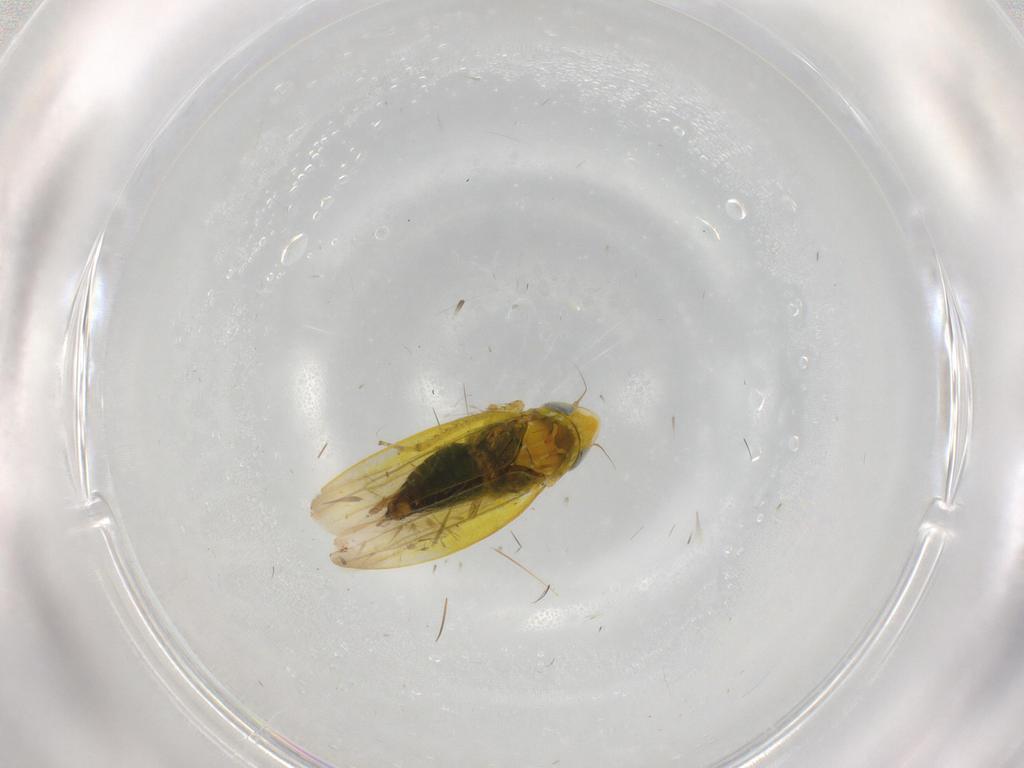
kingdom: Animalia
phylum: Arthropoda
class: Insecta
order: Hemiptera
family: Cicadellidae
